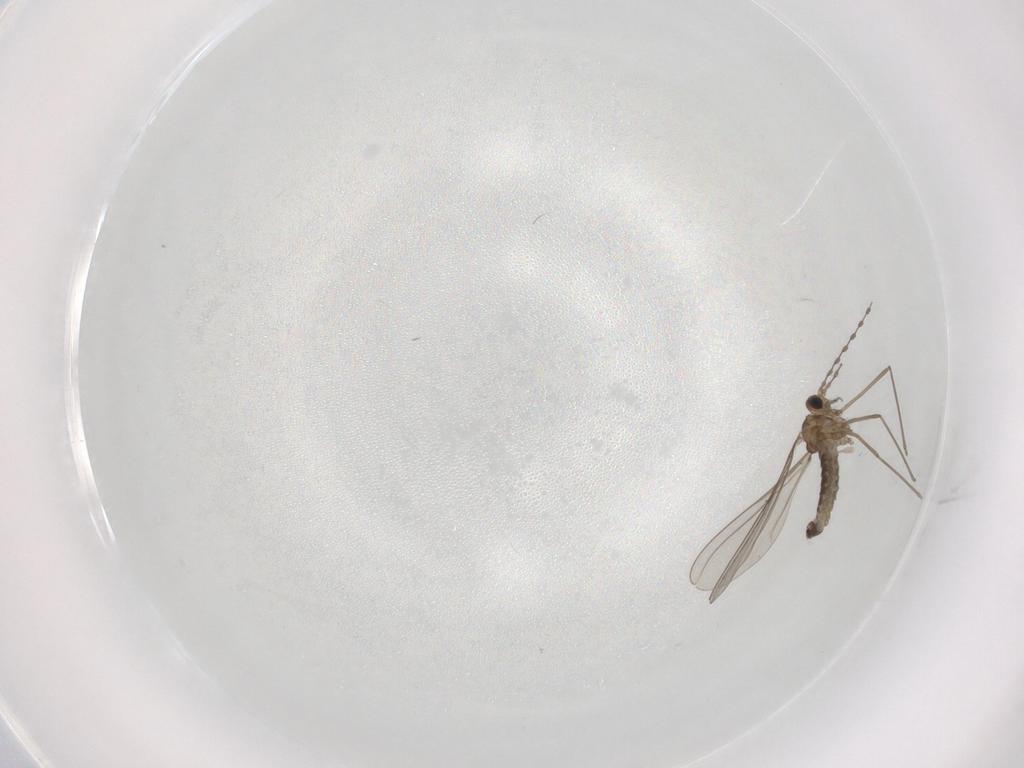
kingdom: Animalia
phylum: Arthropoda
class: Insecta
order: Diptera
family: Cecidomyiidae
